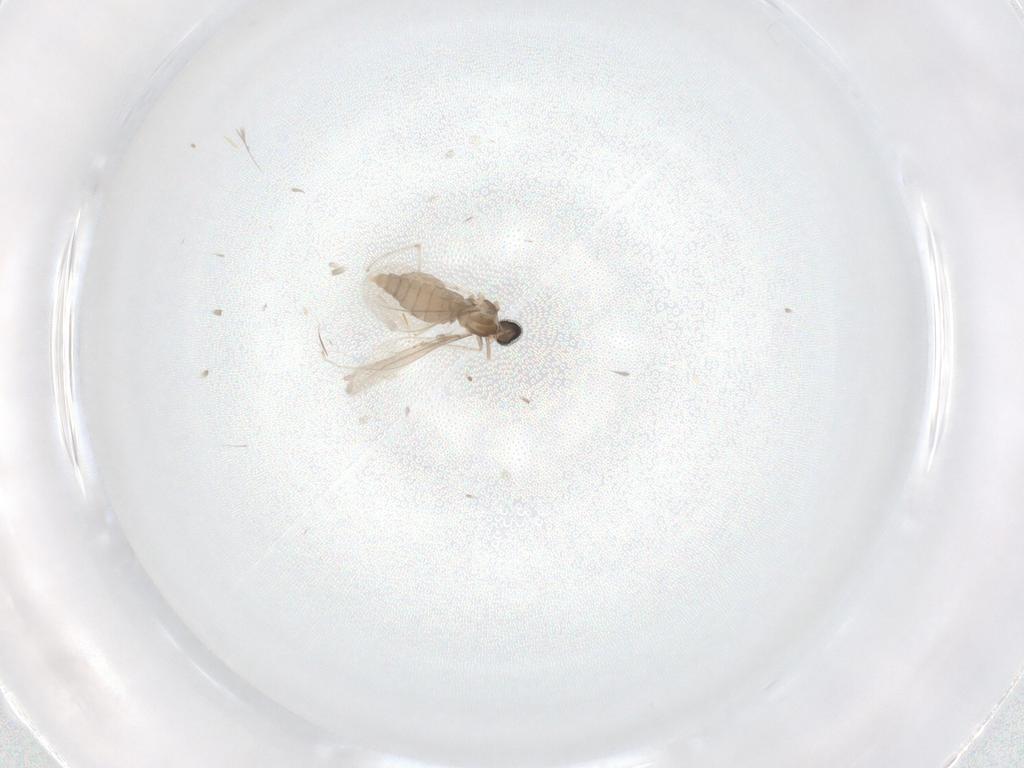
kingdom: Animalia
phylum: Arthropoda
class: Insecta
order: Diptera
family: Cecidomyiidae
